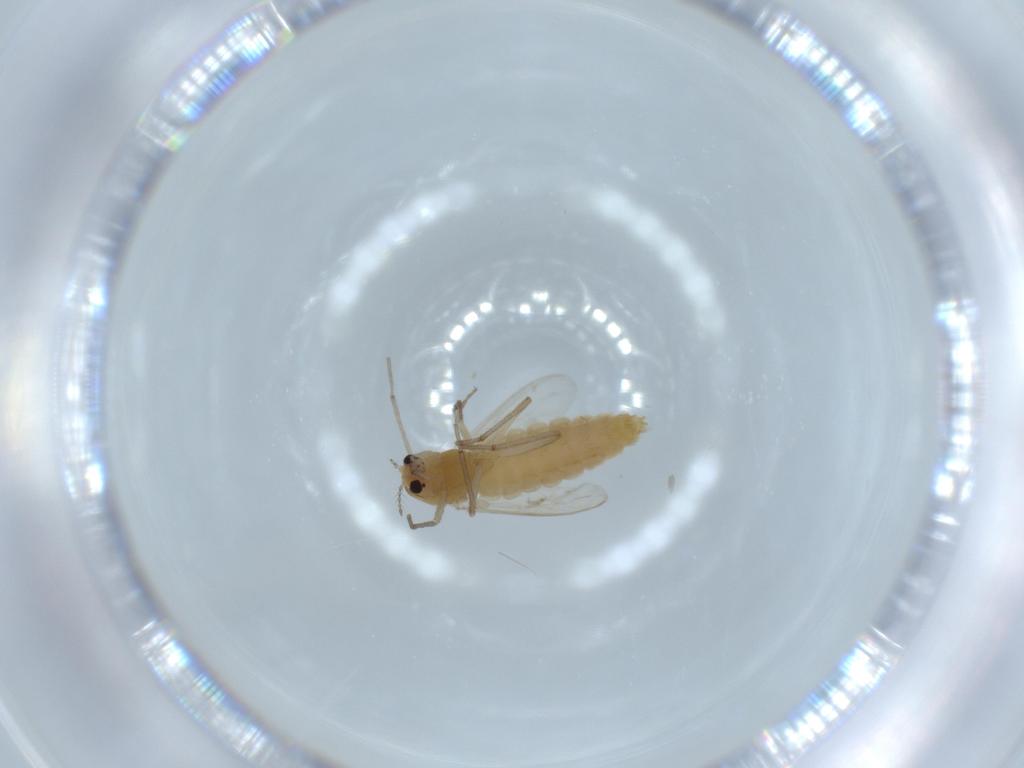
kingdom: Animalia
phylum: Arthropoda
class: Insecta
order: Diptera
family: Chironomidae
